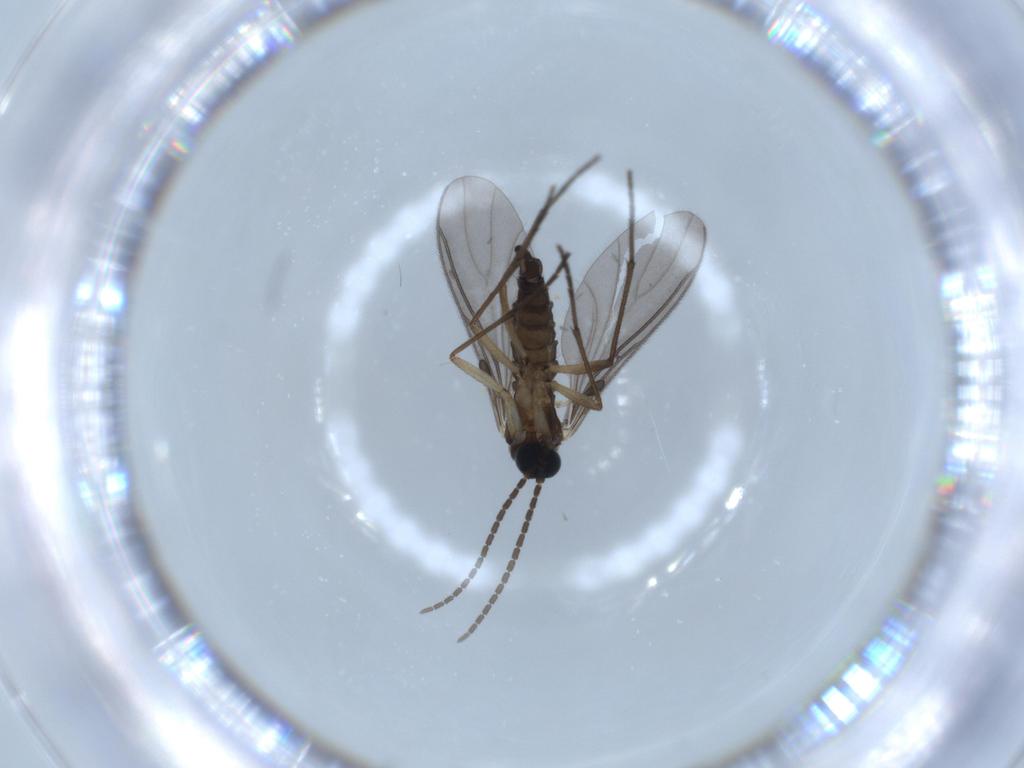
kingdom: Animalia
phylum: Arthropoda
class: Insecta
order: Diptera
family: Sciaridae
